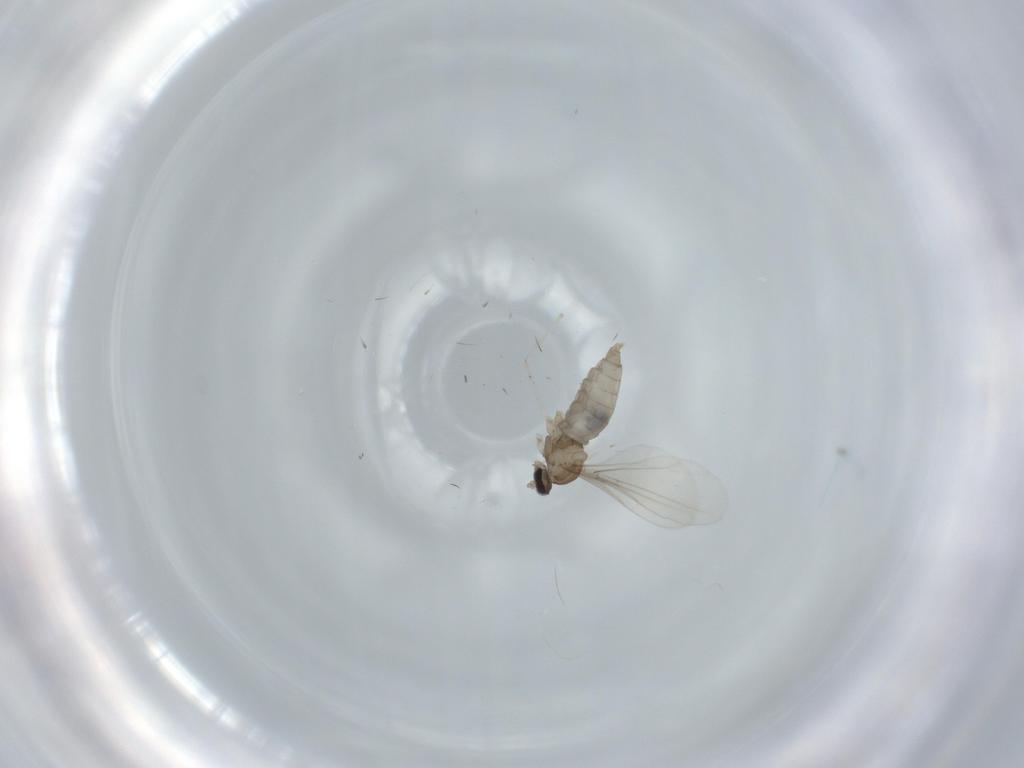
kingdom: Animalia
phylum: Arthropoda
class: Insecta
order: Diptera
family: Cecidomyiidae
